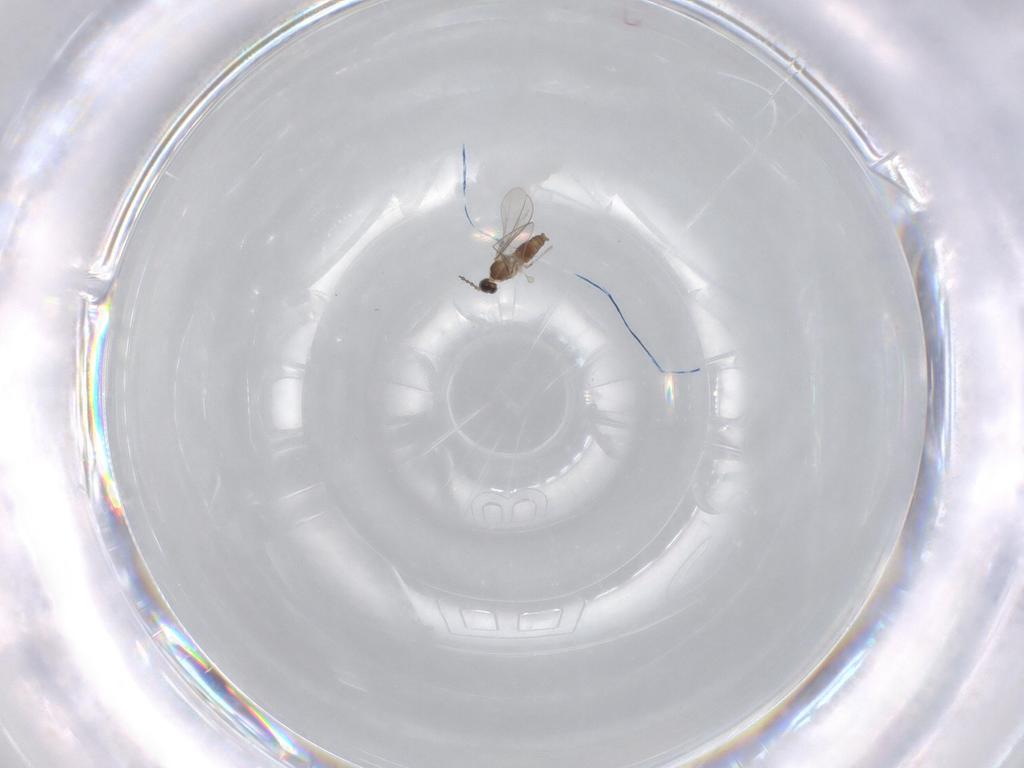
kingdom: Animalia
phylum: Arthropoda
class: Insecta
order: Diptera
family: Cecidomyiidae
